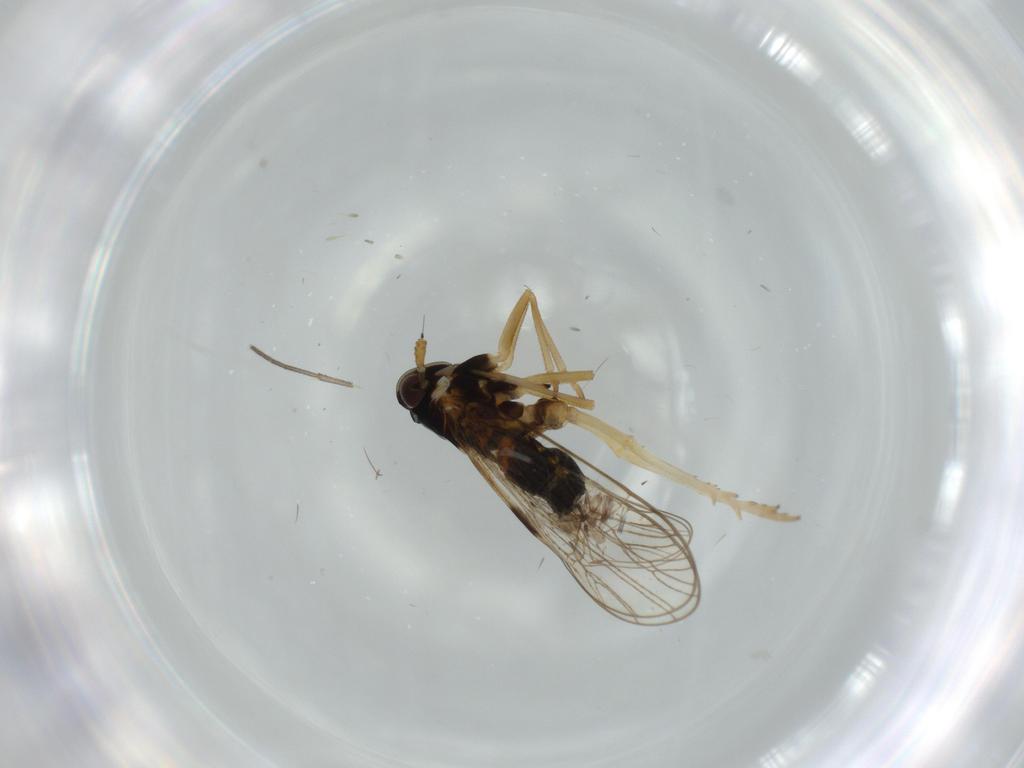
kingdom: Animalia
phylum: Arthropoda
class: Insecta
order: Hemiptera
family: Cercopidae
